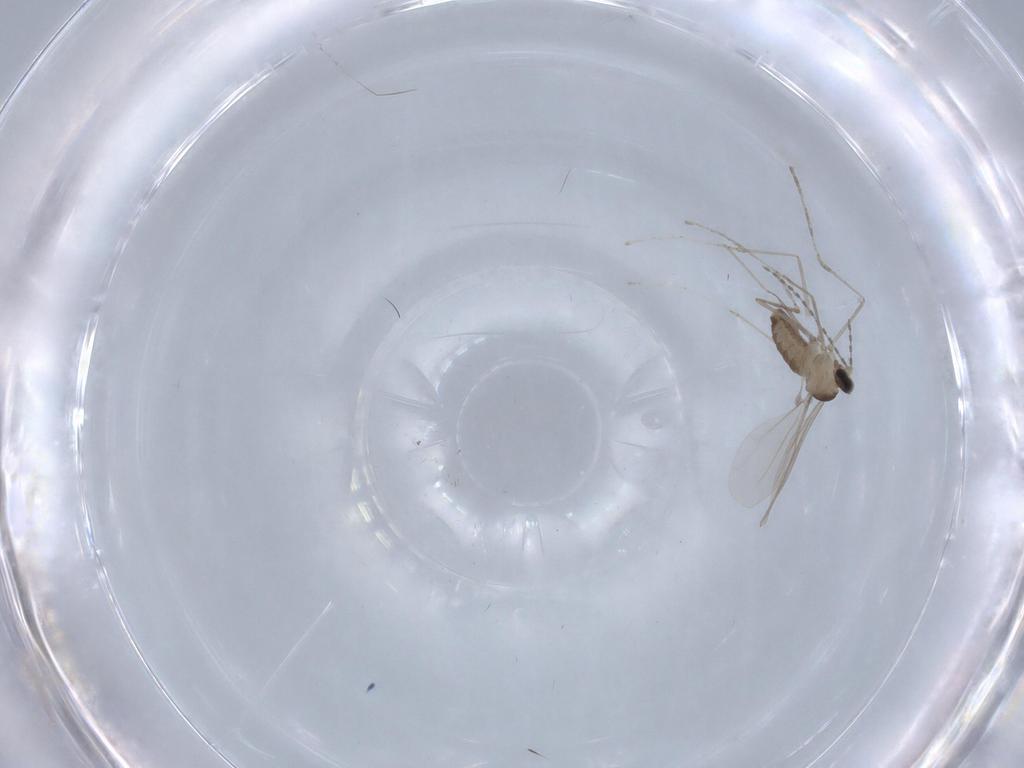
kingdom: Animalia
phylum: Arthropoda
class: Insecta
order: Diptera
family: Cecidomyiidae
